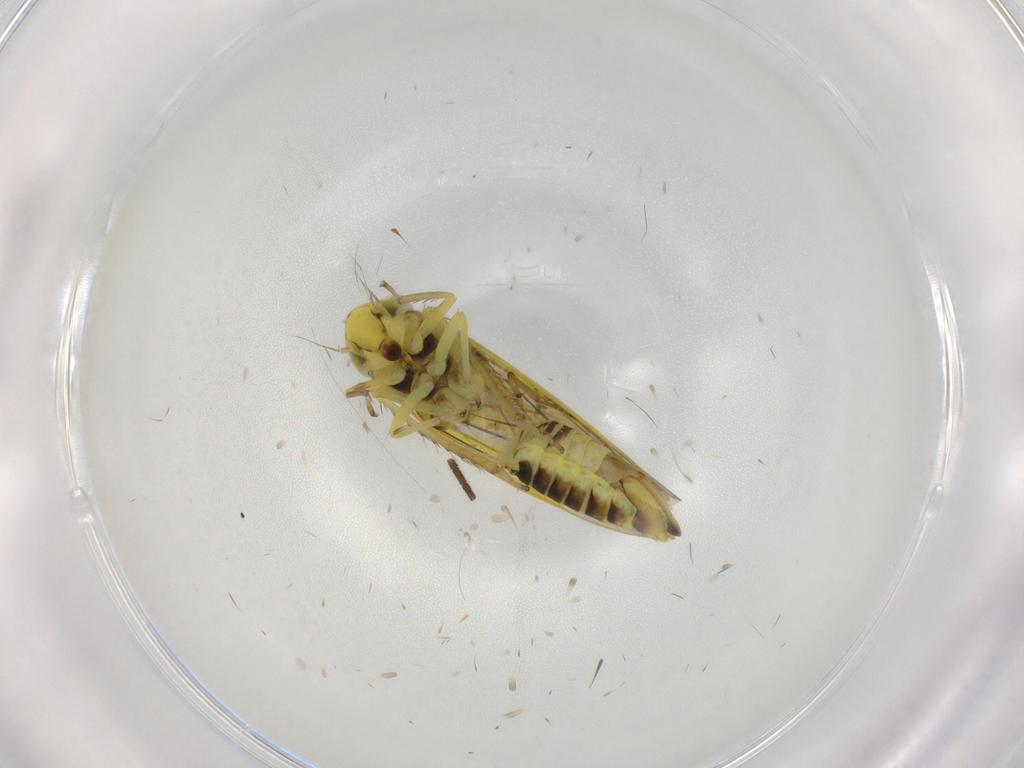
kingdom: Animalia
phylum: Arthropoda
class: Insecta
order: Hemiptera
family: Cicadellidae
